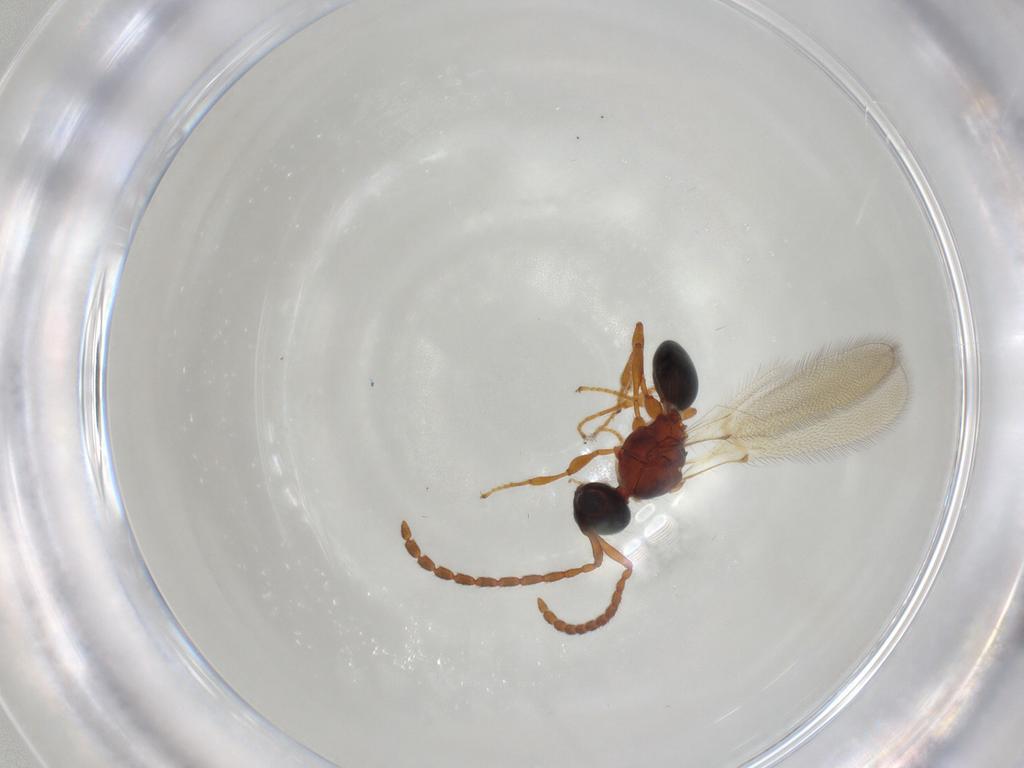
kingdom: Animalia
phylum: Arthropoda
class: Insecta
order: Hymenoptera
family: Diapriidae
